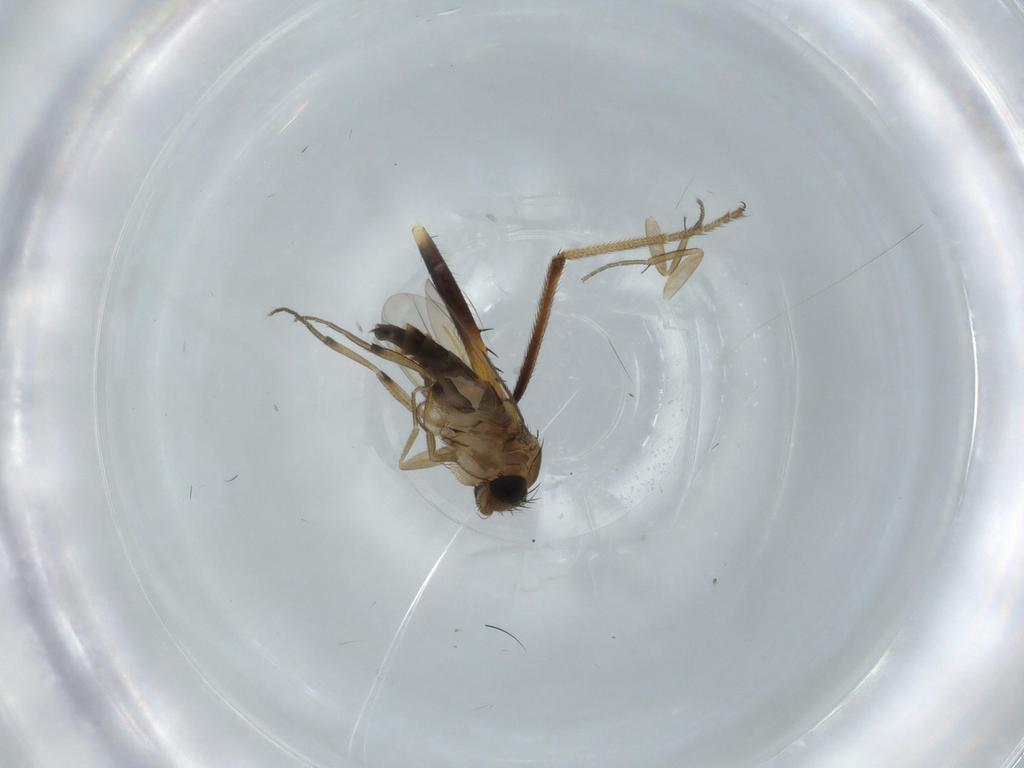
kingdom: Animalia
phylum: Arthropoda
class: Insecta
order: Diptera
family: Phoridae
